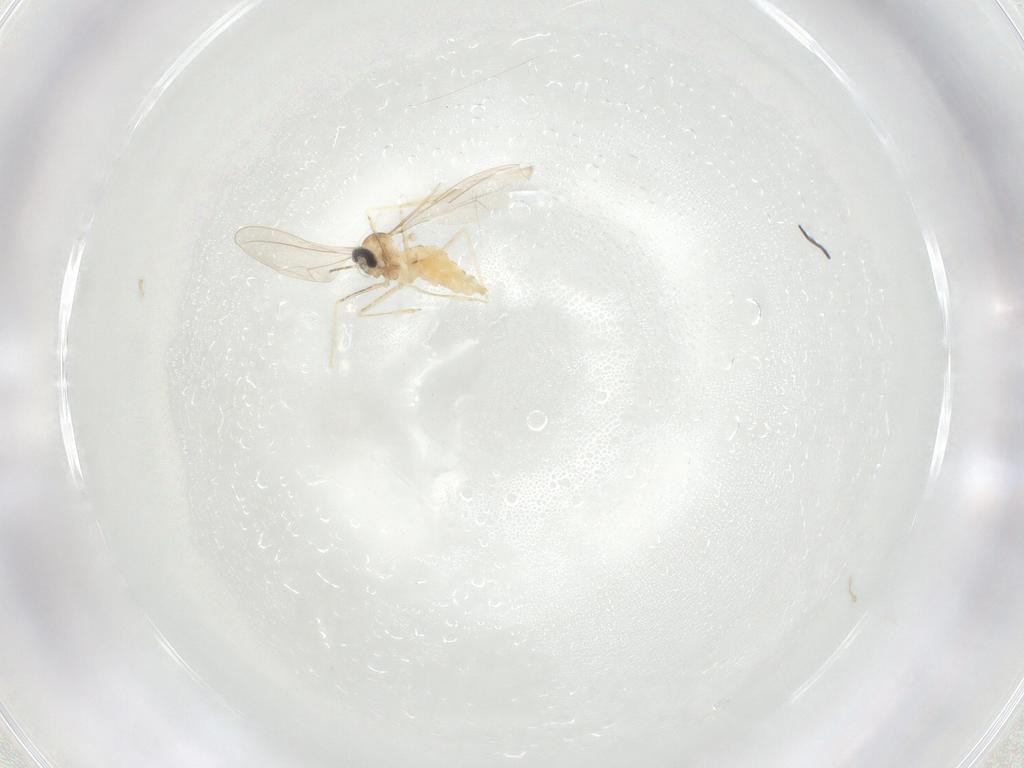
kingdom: Animalia
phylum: Arthropoda
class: Insecta
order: Diptera
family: Cecidomyiidae
